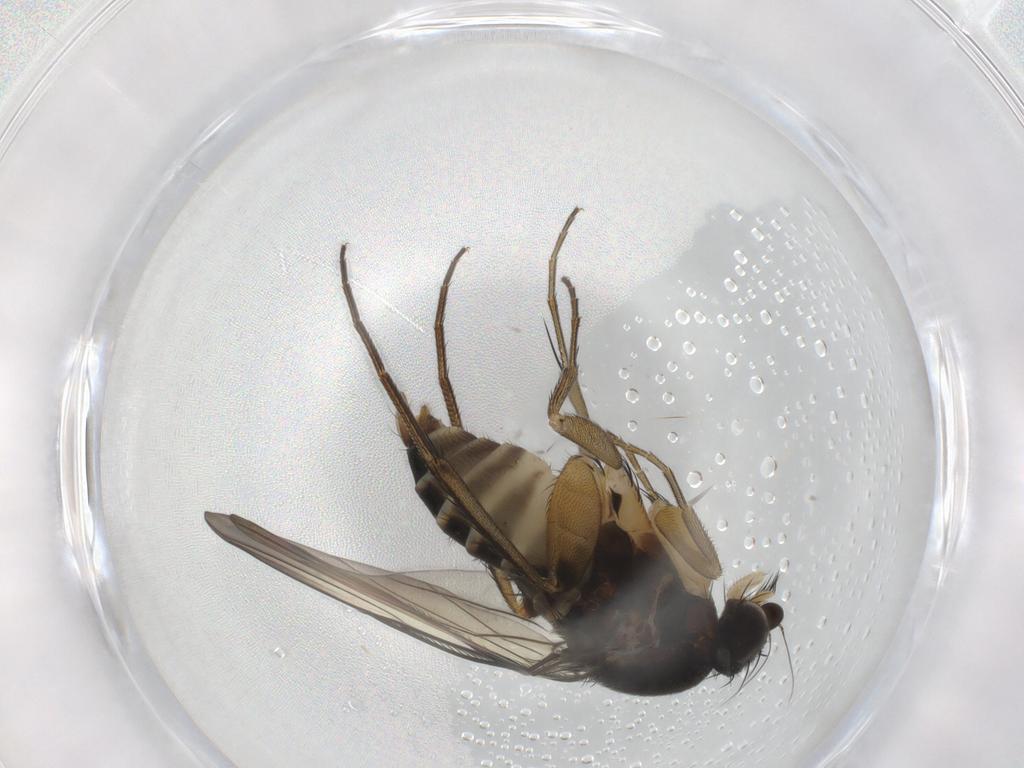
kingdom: Animalia
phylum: Arthropoda
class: Insecta
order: Diptera
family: Phoridae
